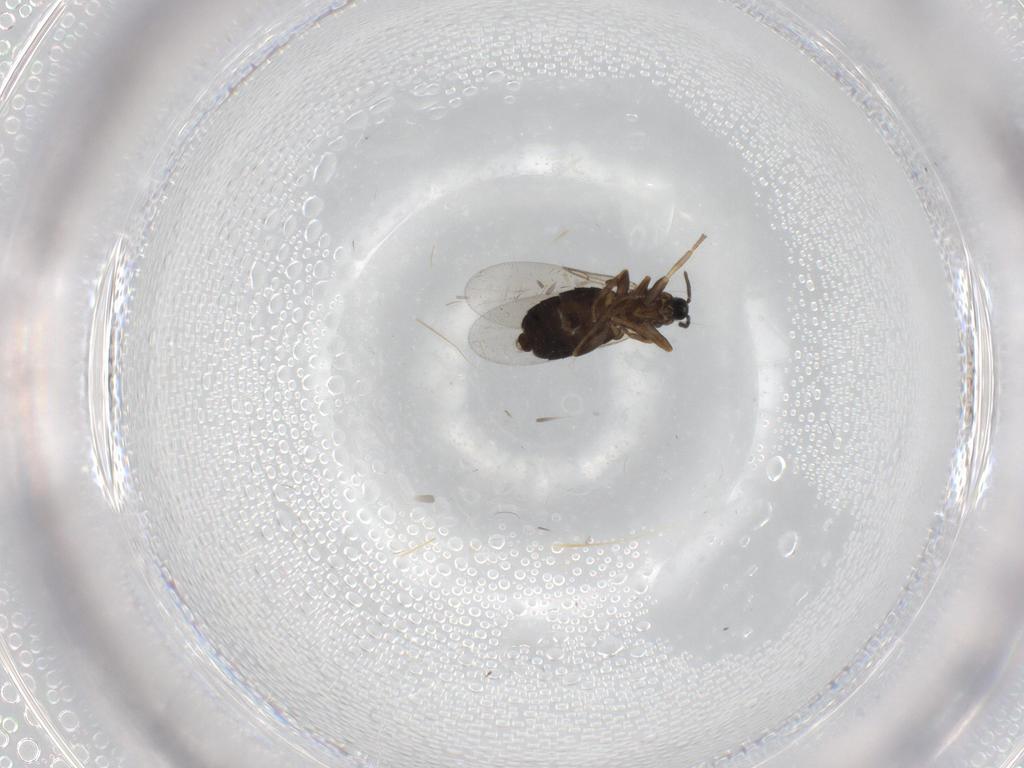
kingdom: Animalia
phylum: Arthropoda
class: Insecta
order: Diptera
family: Scatopsidae
